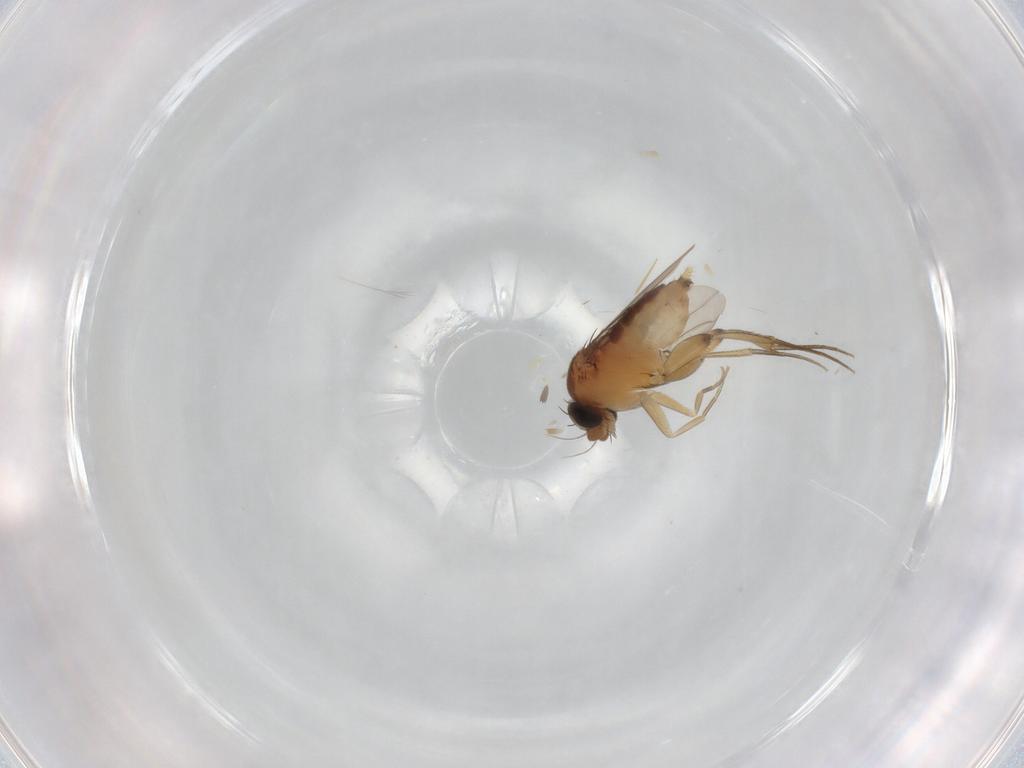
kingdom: Animalia
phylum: Arthropoda
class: Insecta
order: Diptera
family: Phoridae
